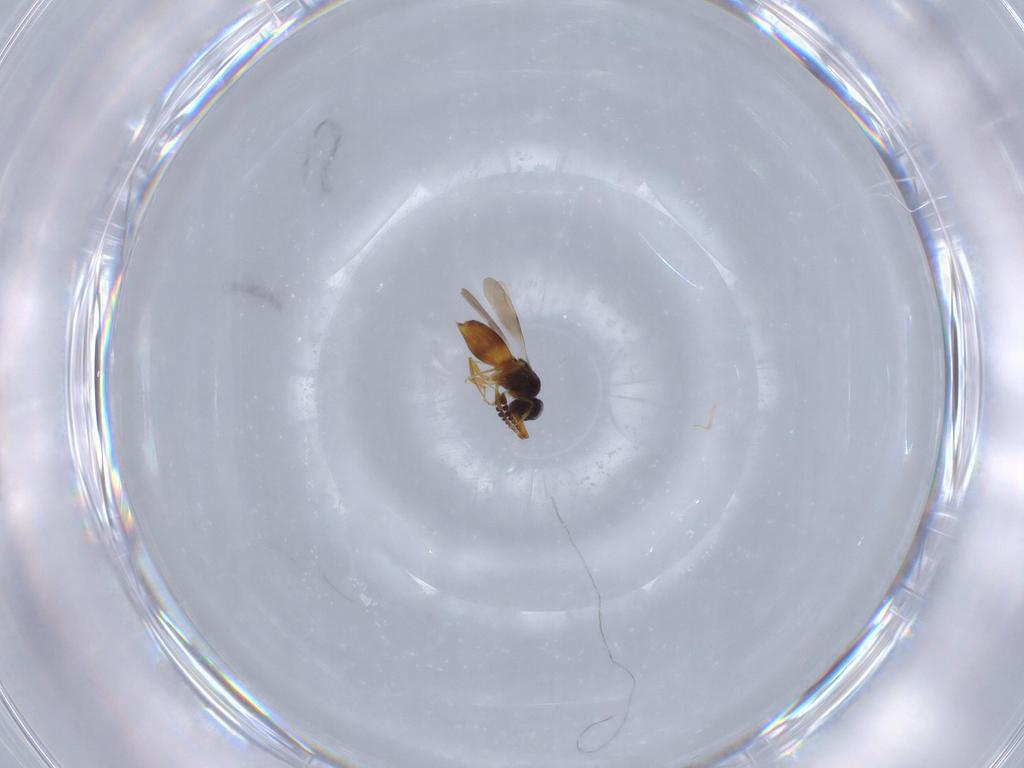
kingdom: Animalia
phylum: Arthropoda
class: Insecta
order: Hymenoptera
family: Ceraphronidae
